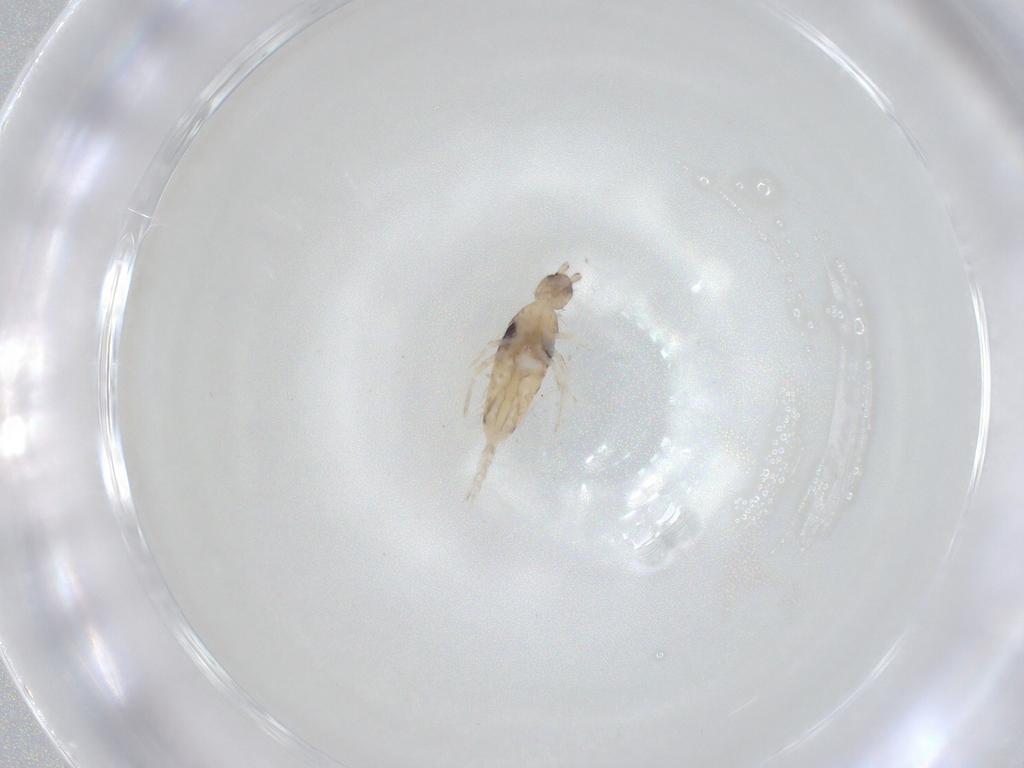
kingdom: Animalia
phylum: Arthropoda
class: Collembola
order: Entomobryomorpha
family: Entomobryidae
